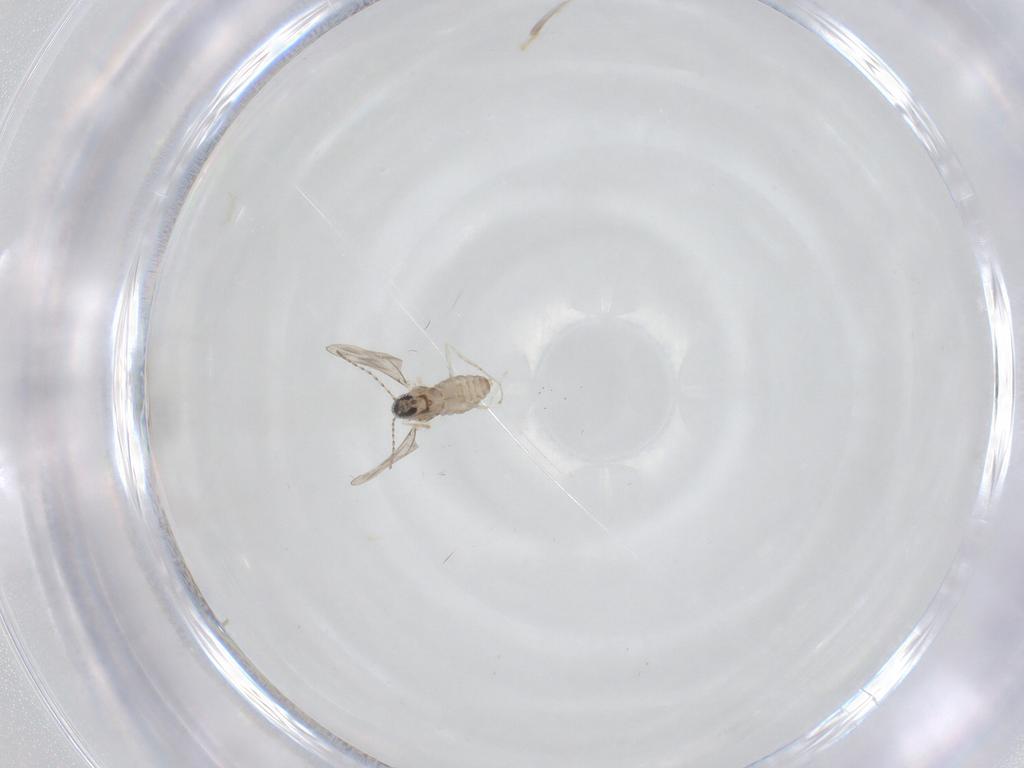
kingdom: Animalia
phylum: Arthropoda
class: Insecta
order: Diptera
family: Cecidomyiidae
